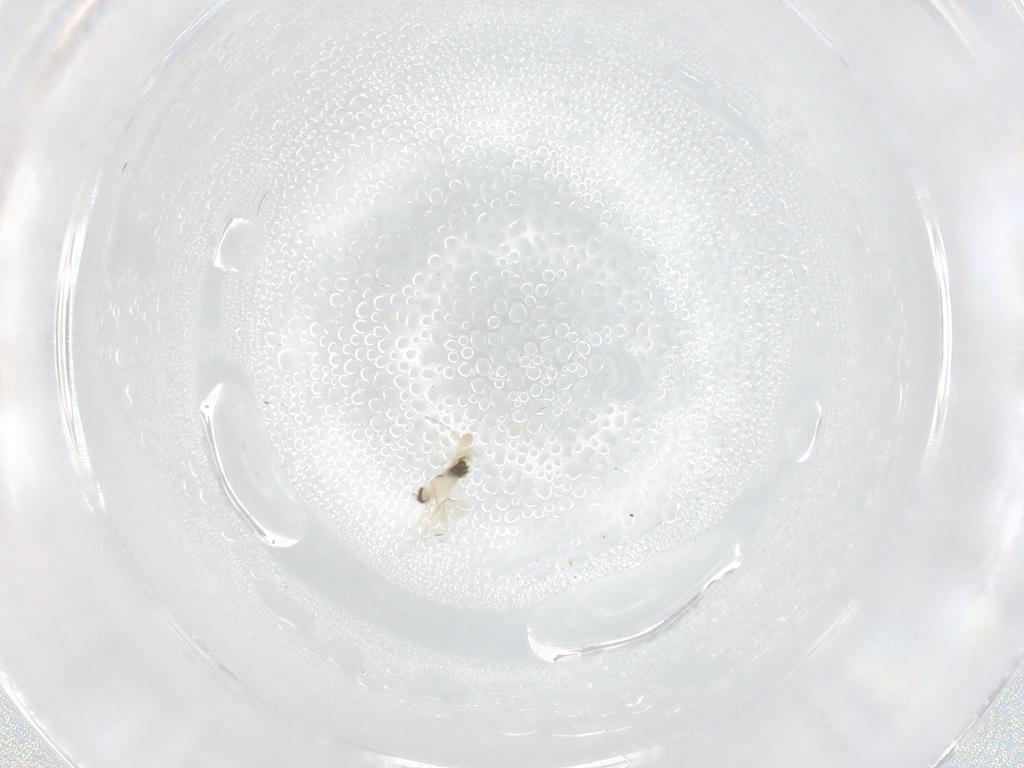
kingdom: Animalia
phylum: Arthropoda
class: Insecta
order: Diptera
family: Cecidomyiidae
